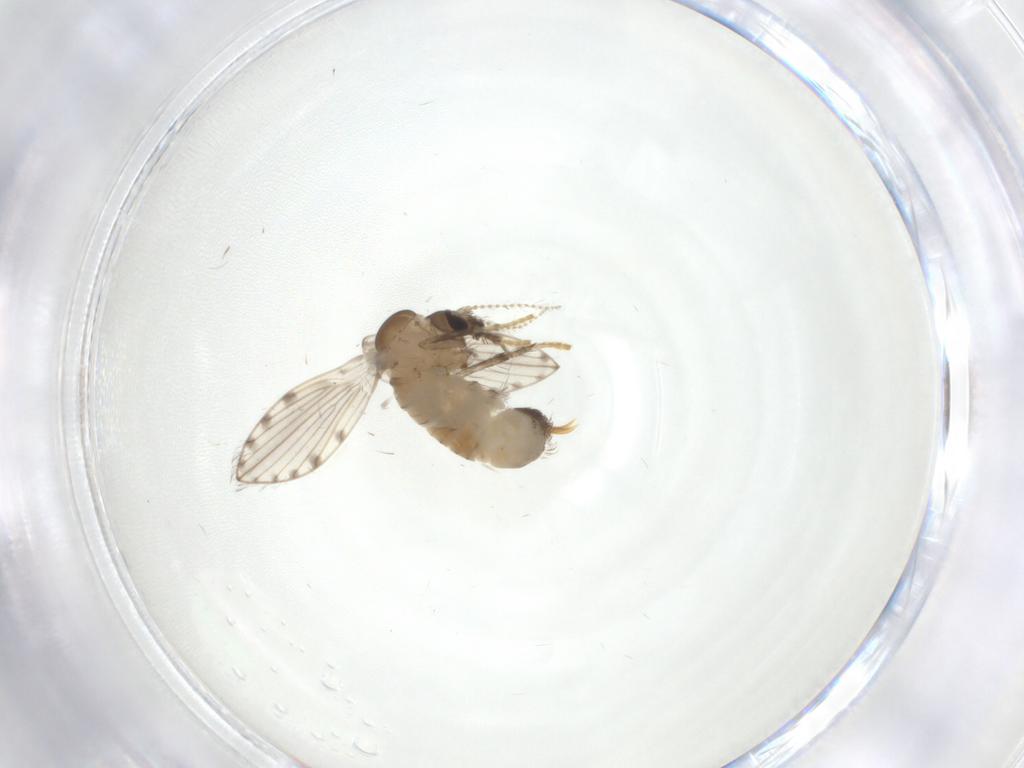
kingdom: Animalia
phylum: Arthropoda
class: Insecta
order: Diptera
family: Psychodidae
